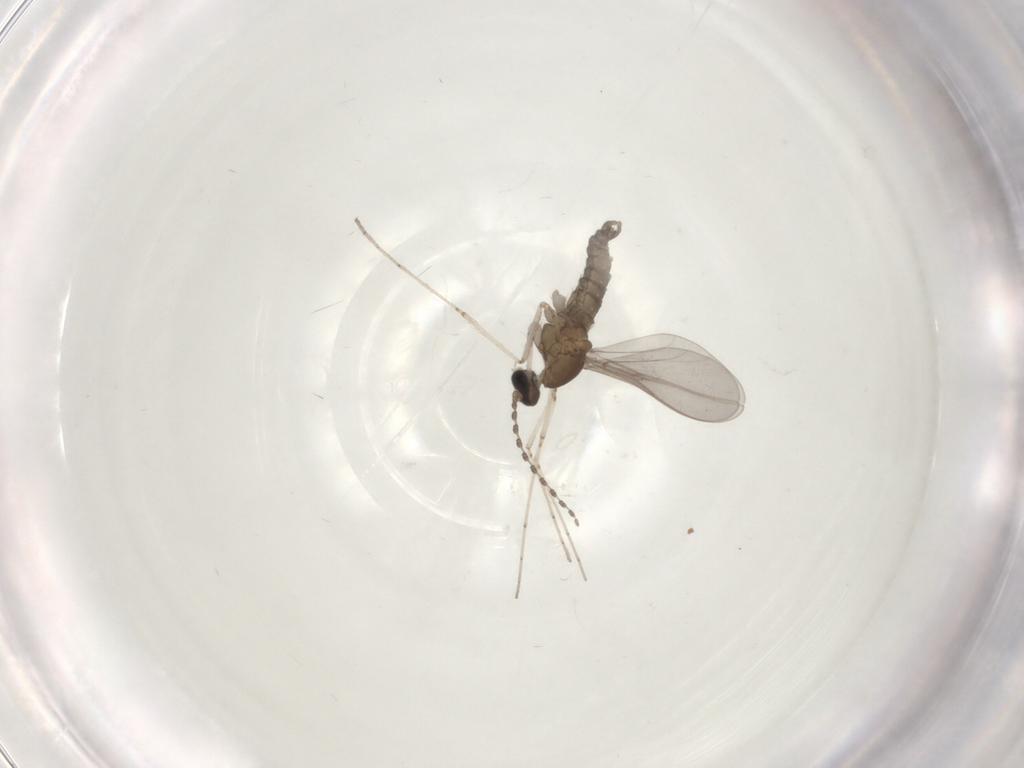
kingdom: Animalia
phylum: Arthropoda
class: Insecta
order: Diptera
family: Cecidomyiidae
